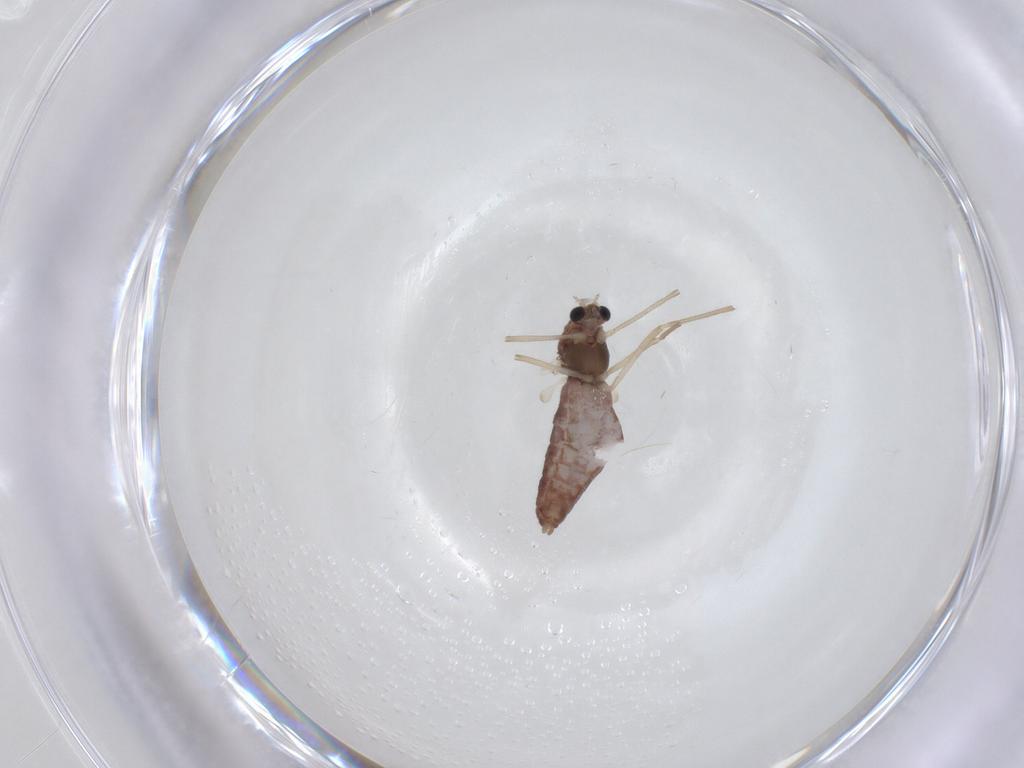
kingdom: Animalia
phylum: Arthropoda
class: Insecta
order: Diptera
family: Chironomidae
